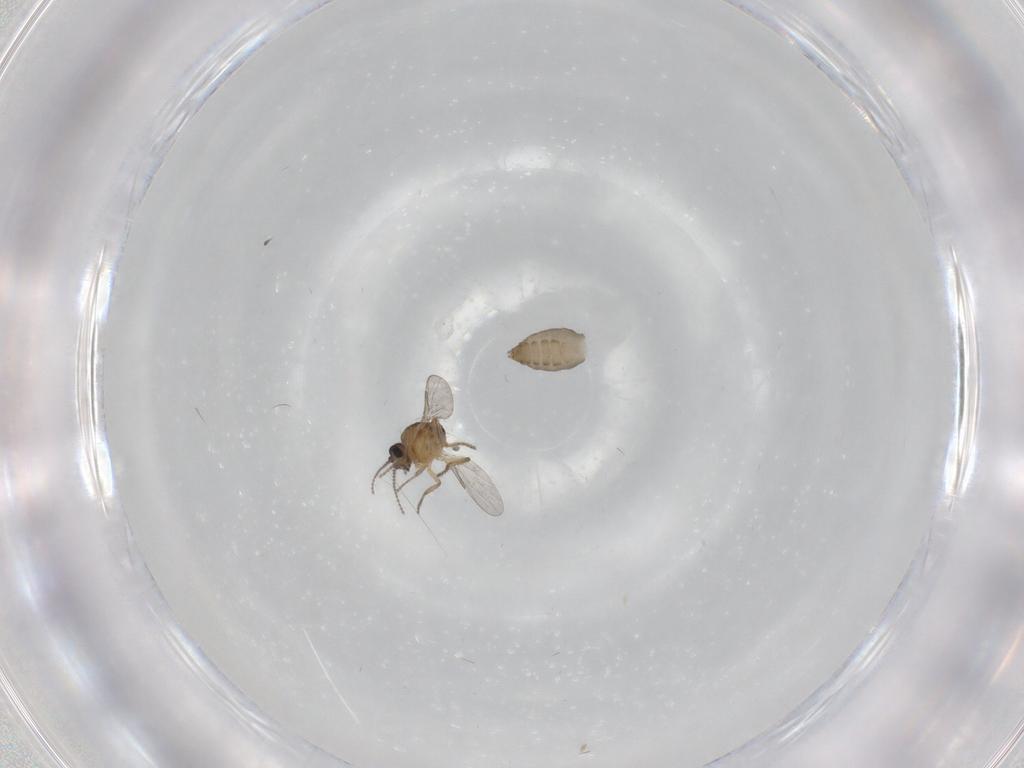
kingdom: Animalia
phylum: Arthropoda
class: Insecta
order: Diptera
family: Ceratopogonidae
